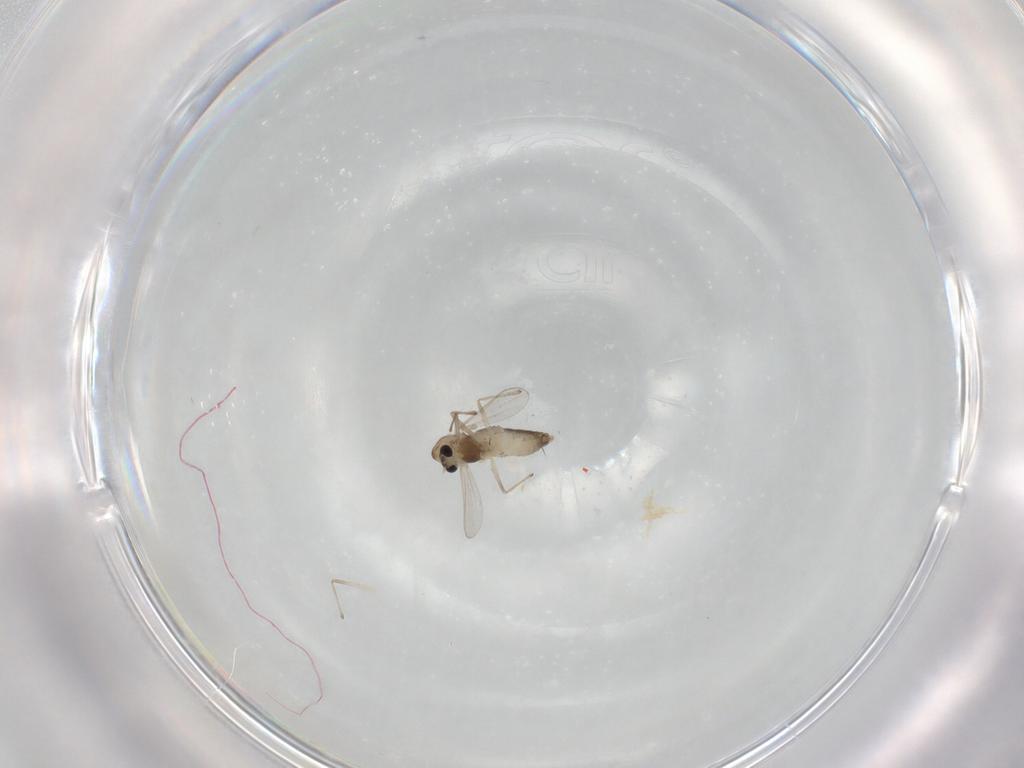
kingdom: Animalia
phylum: Arthropoda
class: Insecta
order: Diptera
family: Chironomidae
